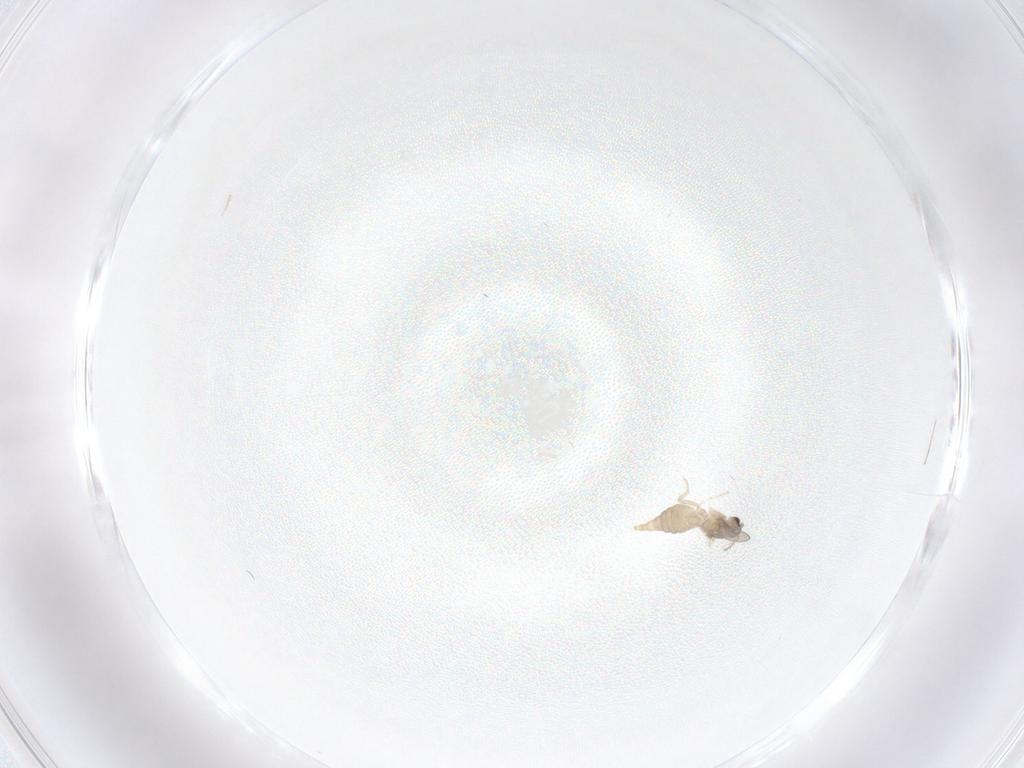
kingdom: Animalia
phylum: Arthropoda
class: Insecta
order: Diptera
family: Cecidomyiidae
